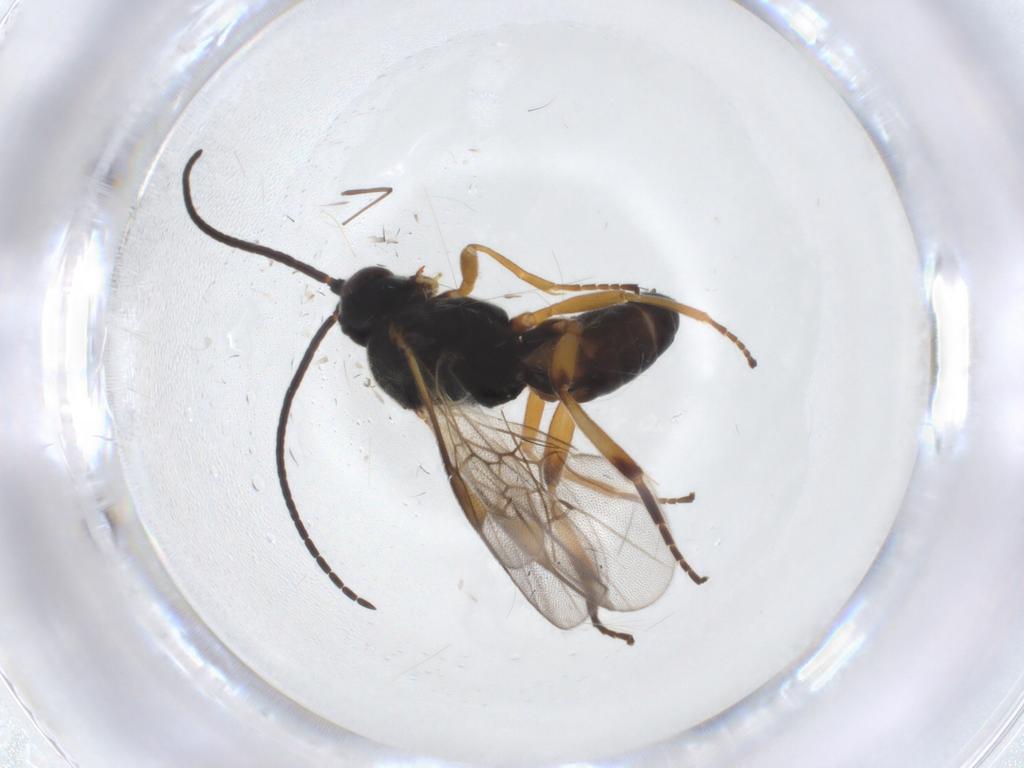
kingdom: Animalia
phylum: Arthropoda
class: Insecta
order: Hymenoptera
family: Braconidae
